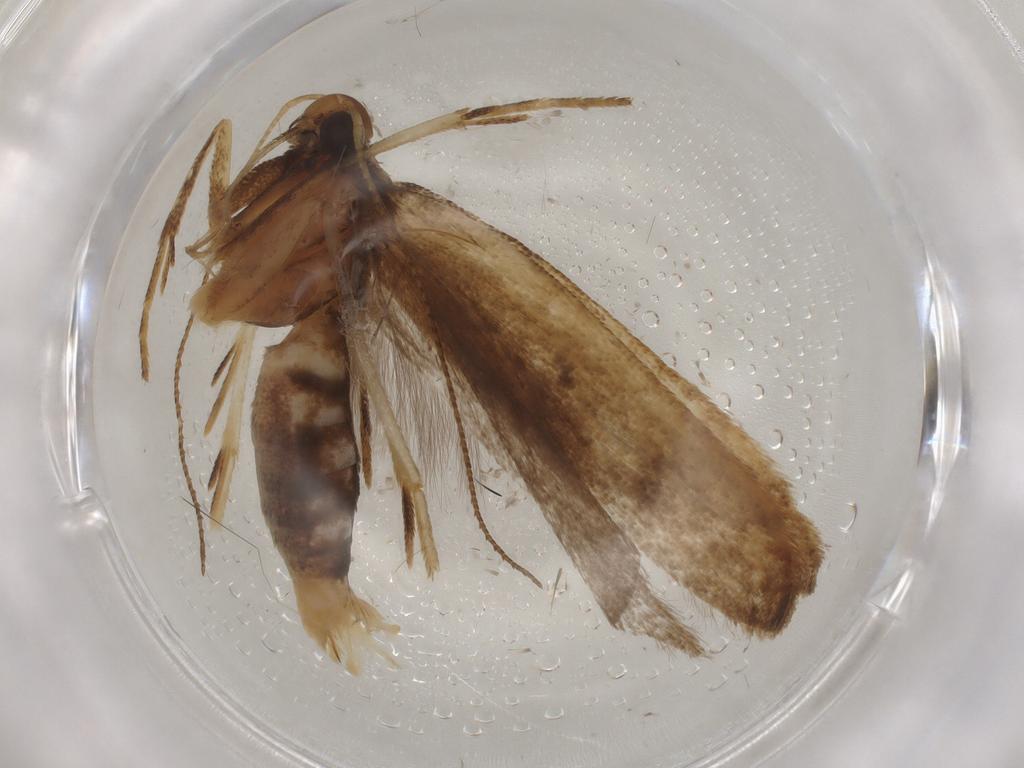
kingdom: Animalia
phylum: Arthropoda
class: Insecta
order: Lepidoptera
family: Gelechiidae
